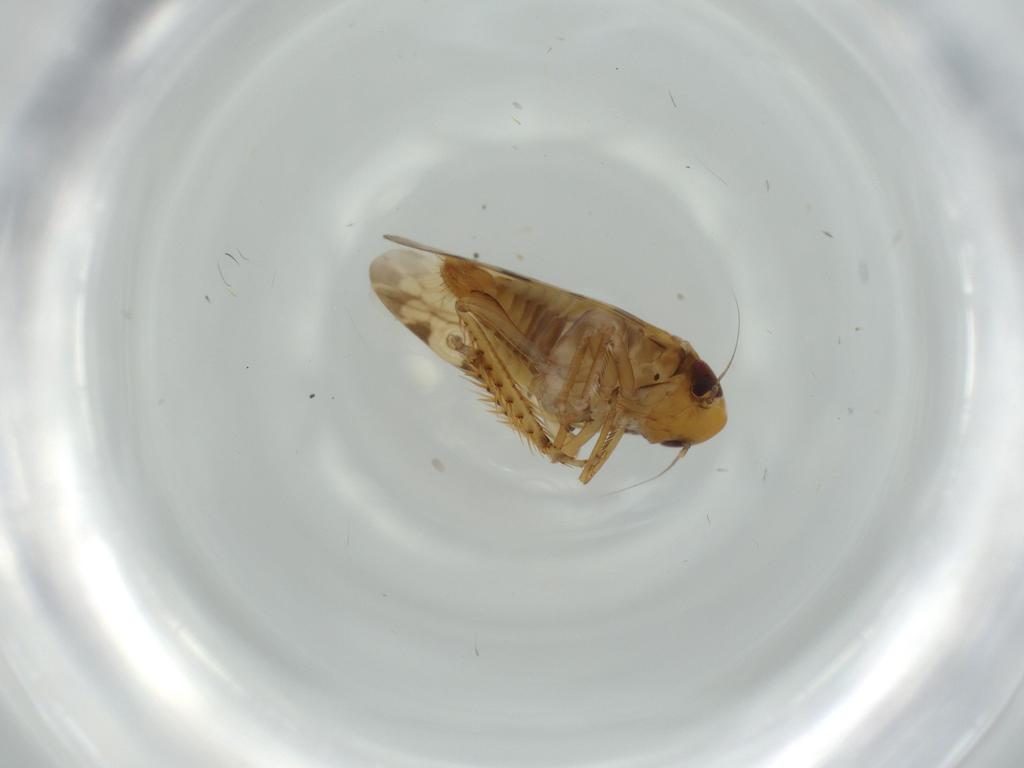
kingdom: Animalia
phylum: Arthropoda
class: Insecta
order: Hemiptera
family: Cicadellidae
